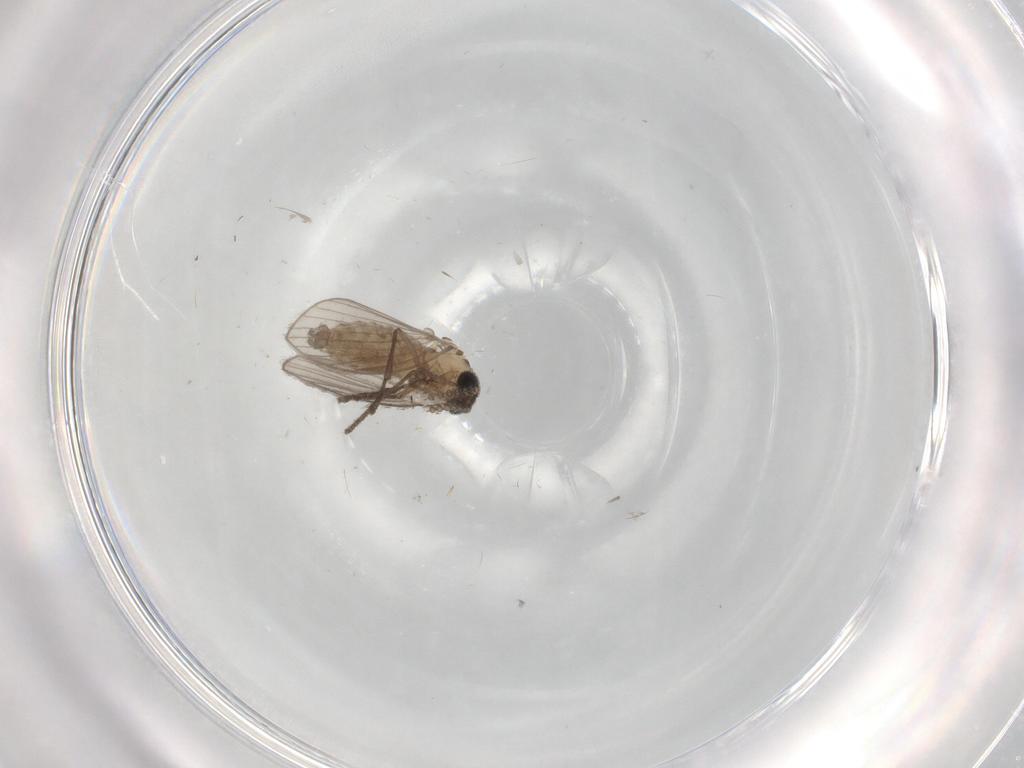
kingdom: Animalia
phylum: Arthropoda
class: Insecta
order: Diptera
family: Psychodidae
